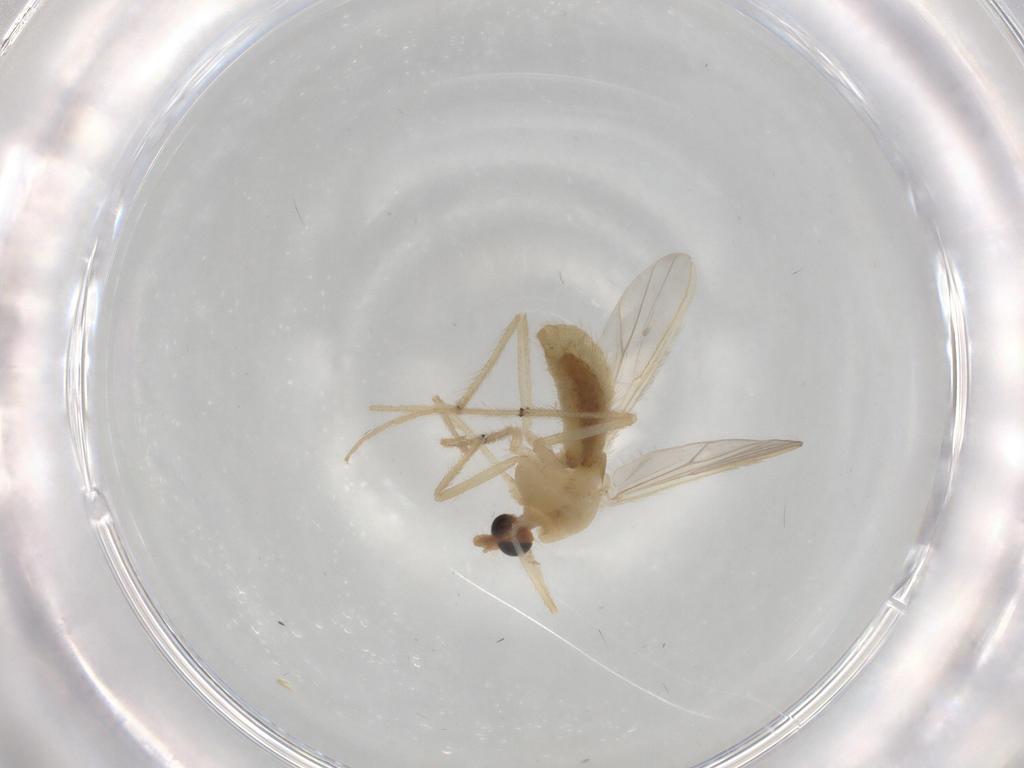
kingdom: Animalia
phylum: Arthropoda
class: Insecta
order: Diptera
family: Chironomidae
